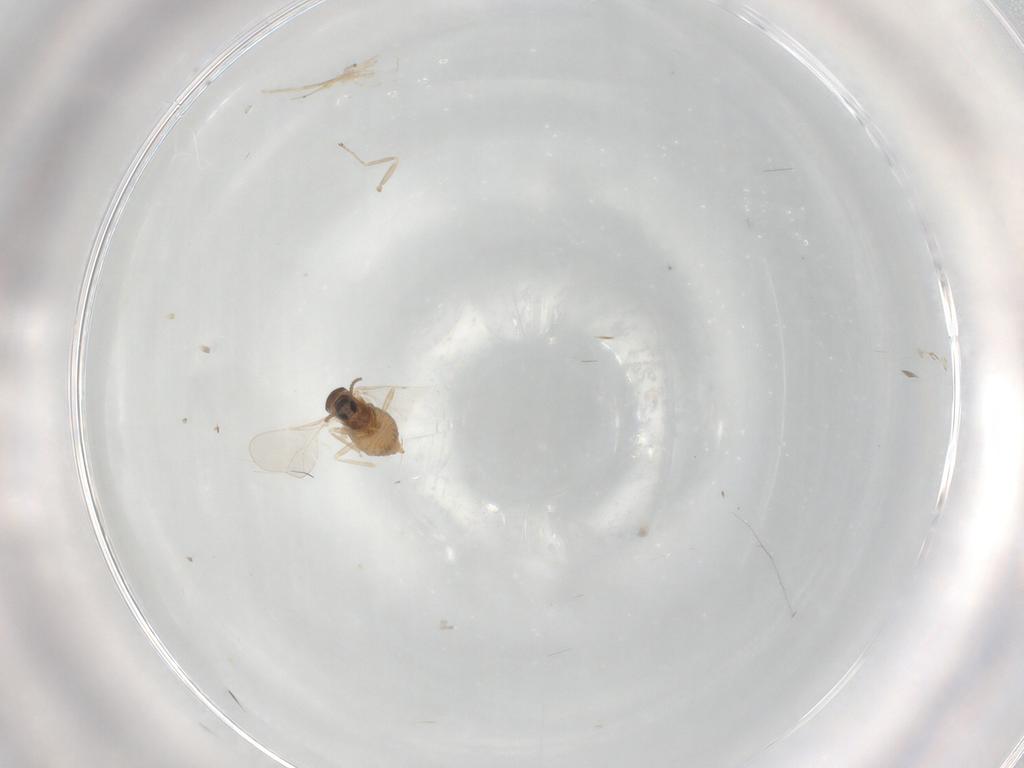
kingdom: Animalia
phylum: Arthropoda
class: Insecta
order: Diptera
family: Cecidomyiidae
